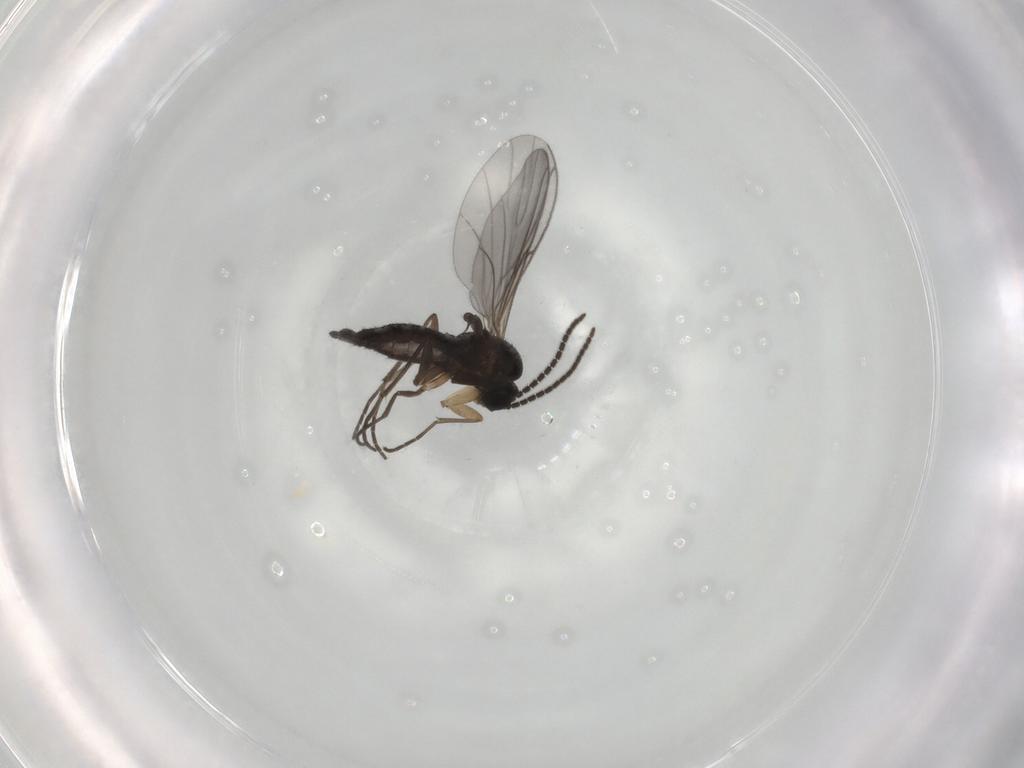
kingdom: Animalia
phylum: Arthropoda
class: Insecta
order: Diptera
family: Sciaridae
